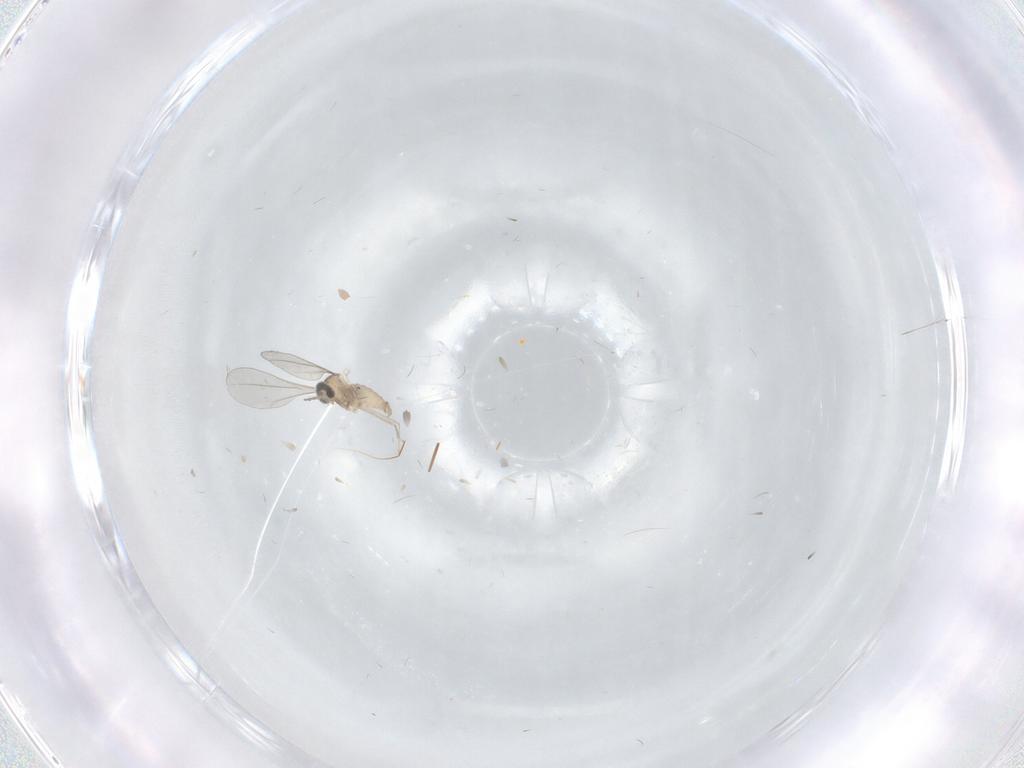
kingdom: Animalia
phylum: Arthropoda
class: Insecta
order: Diptera
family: Cecidomyiidae
